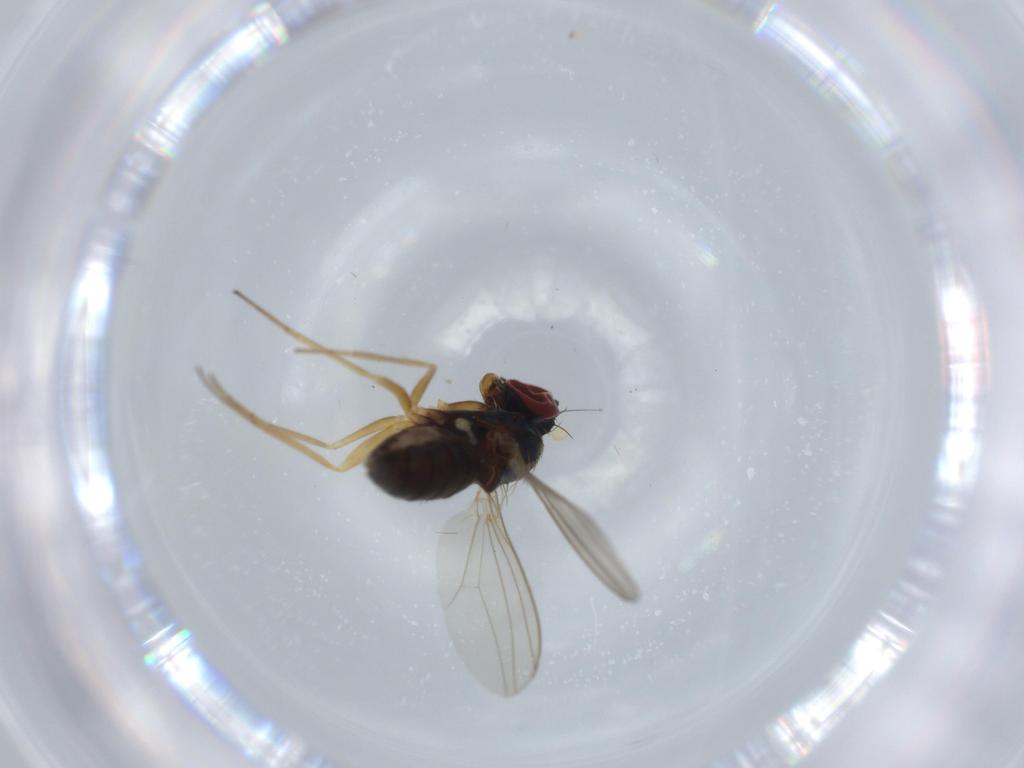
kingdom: Animalia
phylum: Arthropoda
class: Insecta
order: Diptera
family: Dolichopodidae
